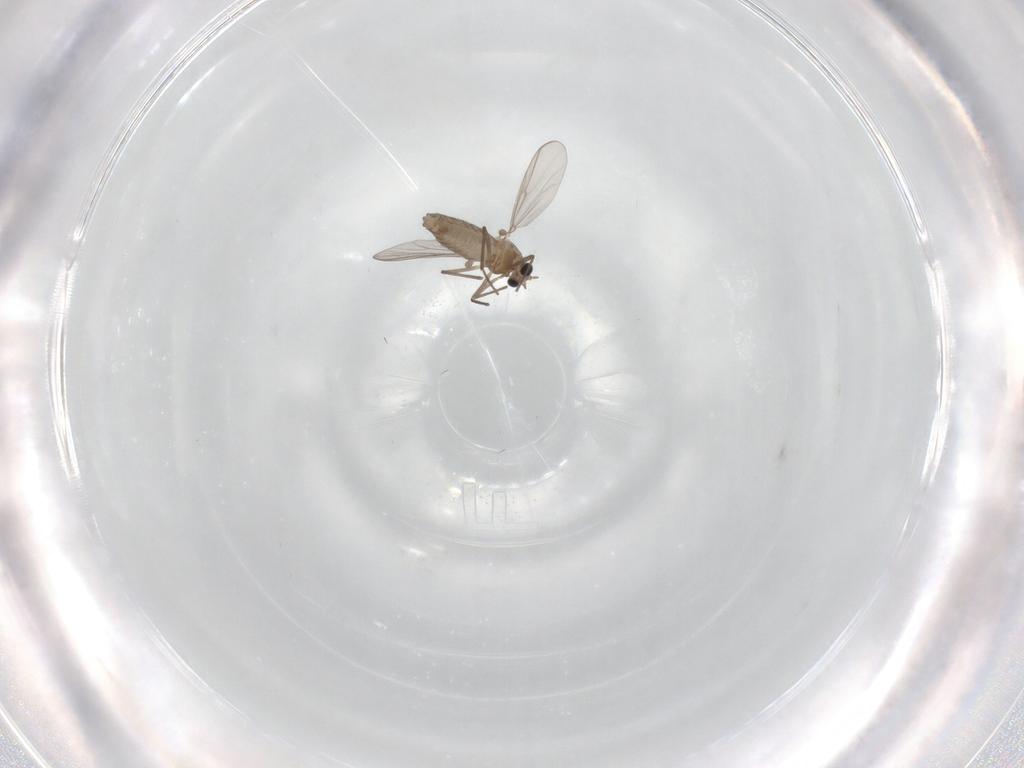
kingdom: Animalia
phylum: Arthropoda
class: Insecta
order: Diptera
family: Chironomidae
